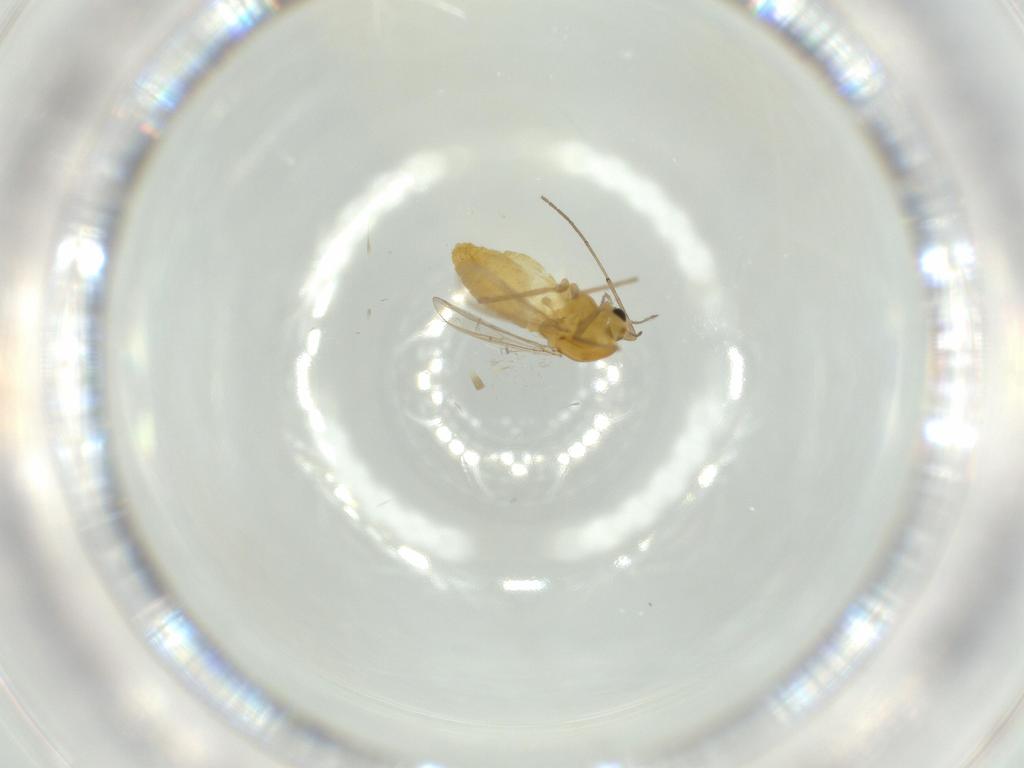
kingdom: Animalia
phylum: Arthropoda
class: Insecta
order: Diptera
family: Chironomidae
